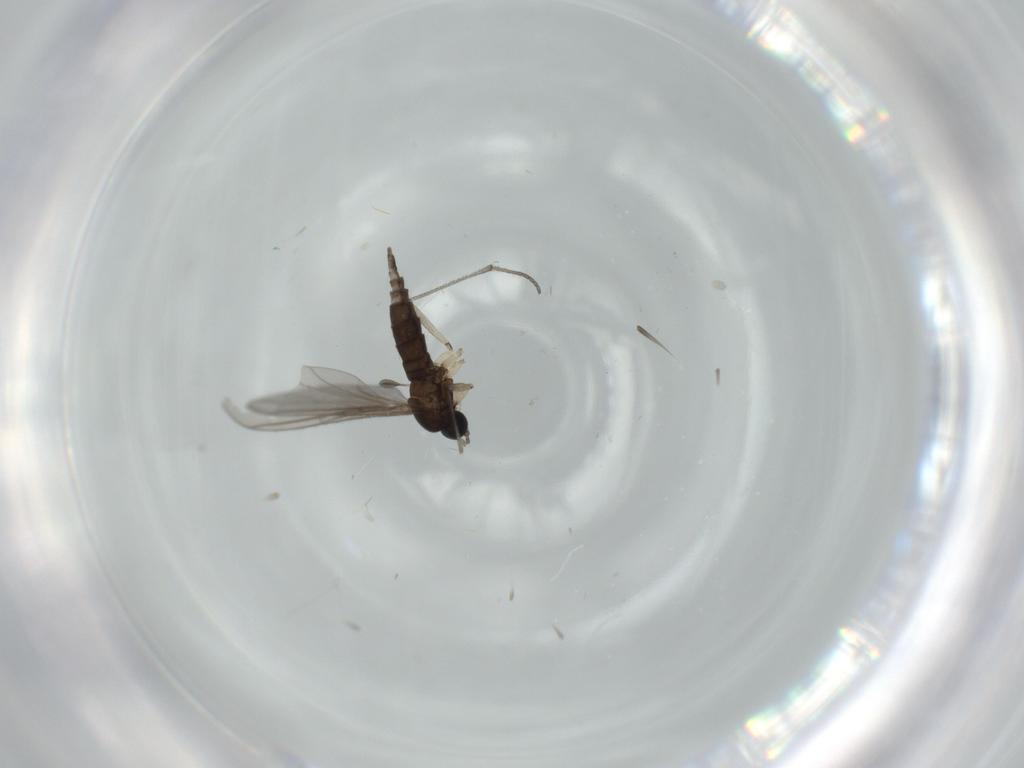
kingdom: Animalia
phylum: Arthropoda
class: Insecta
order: Diptera
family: Sciaridae
